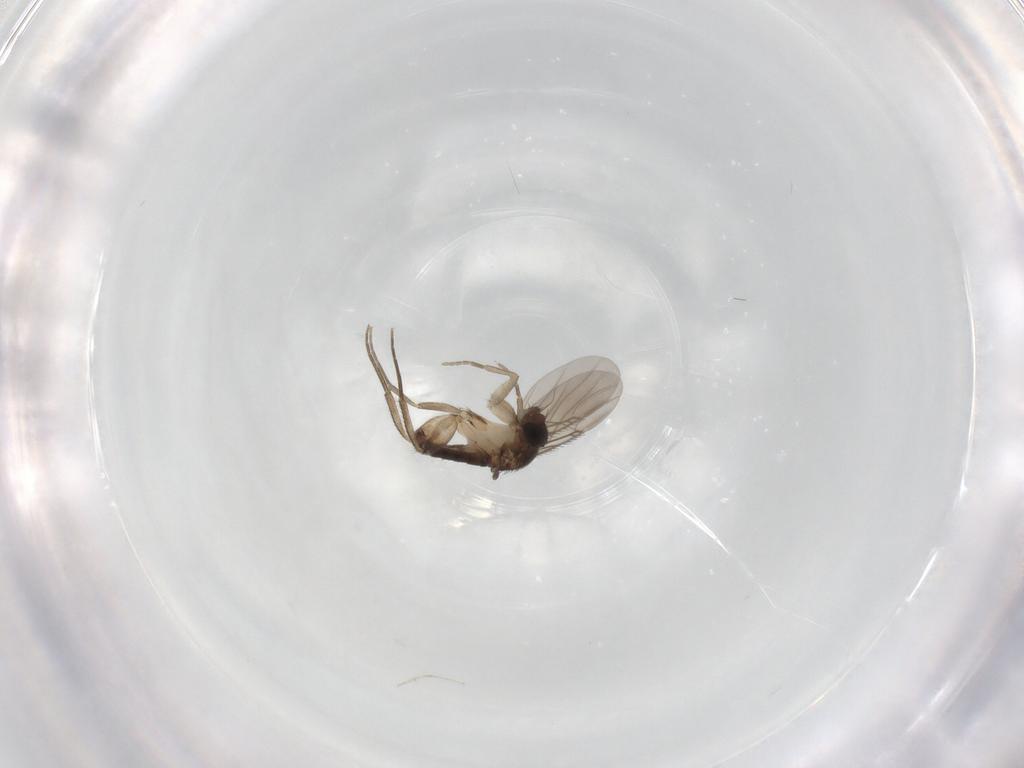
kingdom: Animalia
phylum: Arthropoda
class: Insecta
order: Diptera
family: Phoridae
